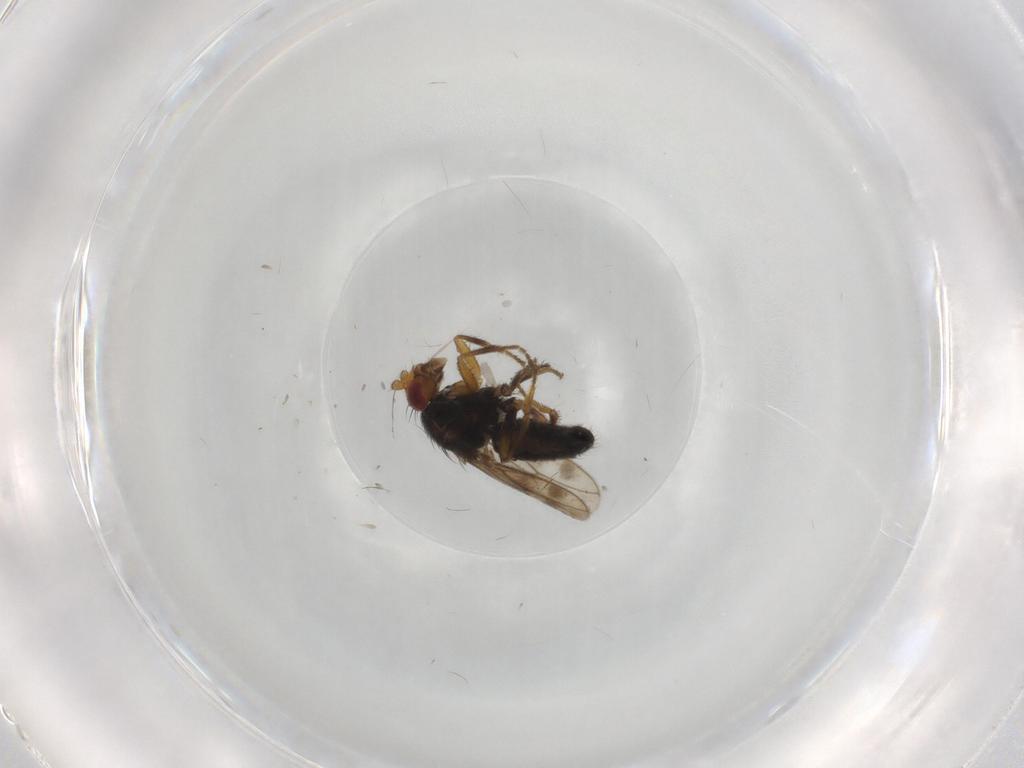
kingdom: Animalia
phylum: Arthropoda
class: Insecta
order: Diptera
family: Sphaeroceridae
